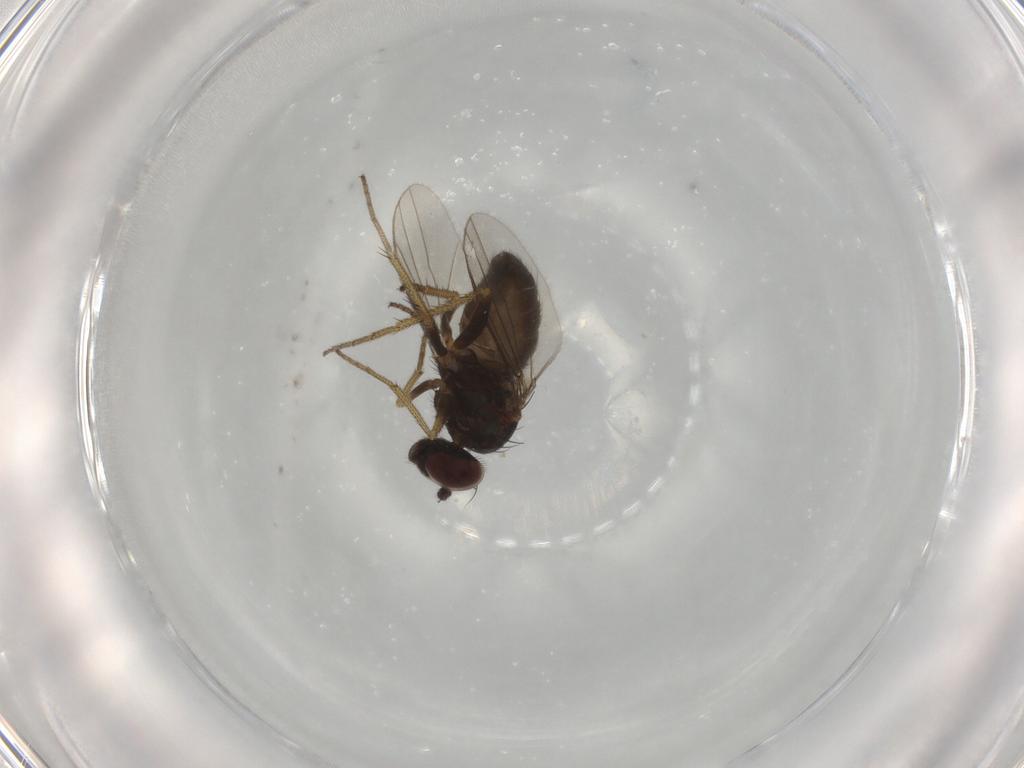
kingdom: Animalia
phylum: Arthropoda
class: Insecta
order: Diptera
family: Dolichopodidae
